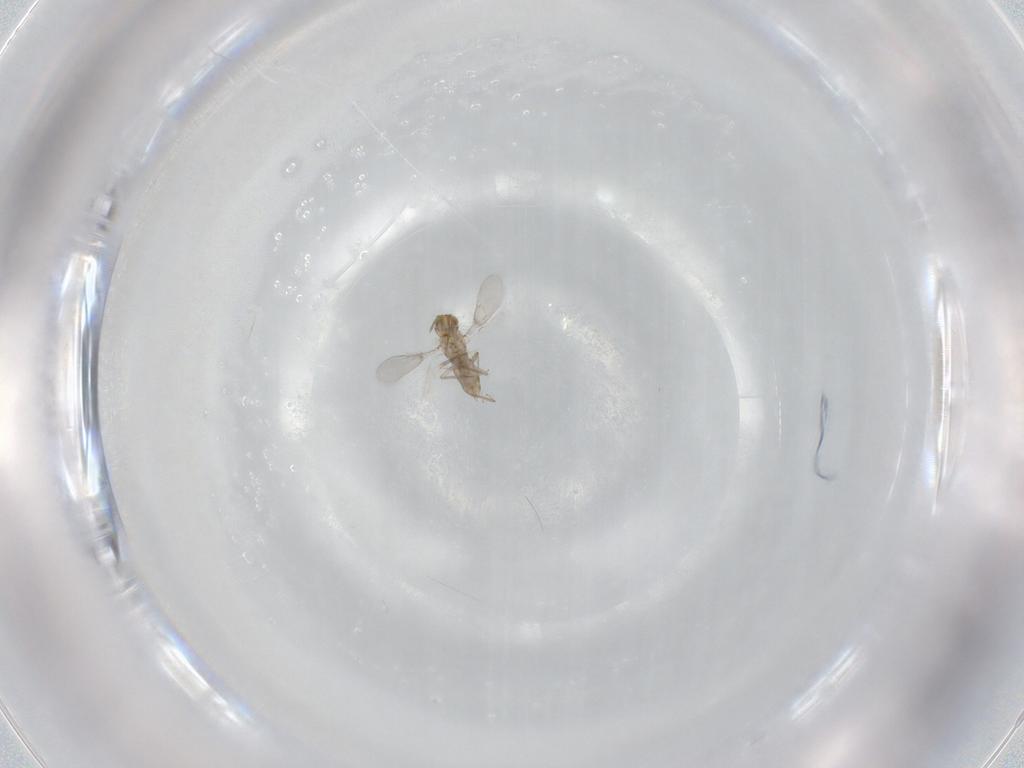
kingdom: Animalia
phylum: Arthropoda
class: Insecta
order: Hymenoptera
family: Aphelinidae
